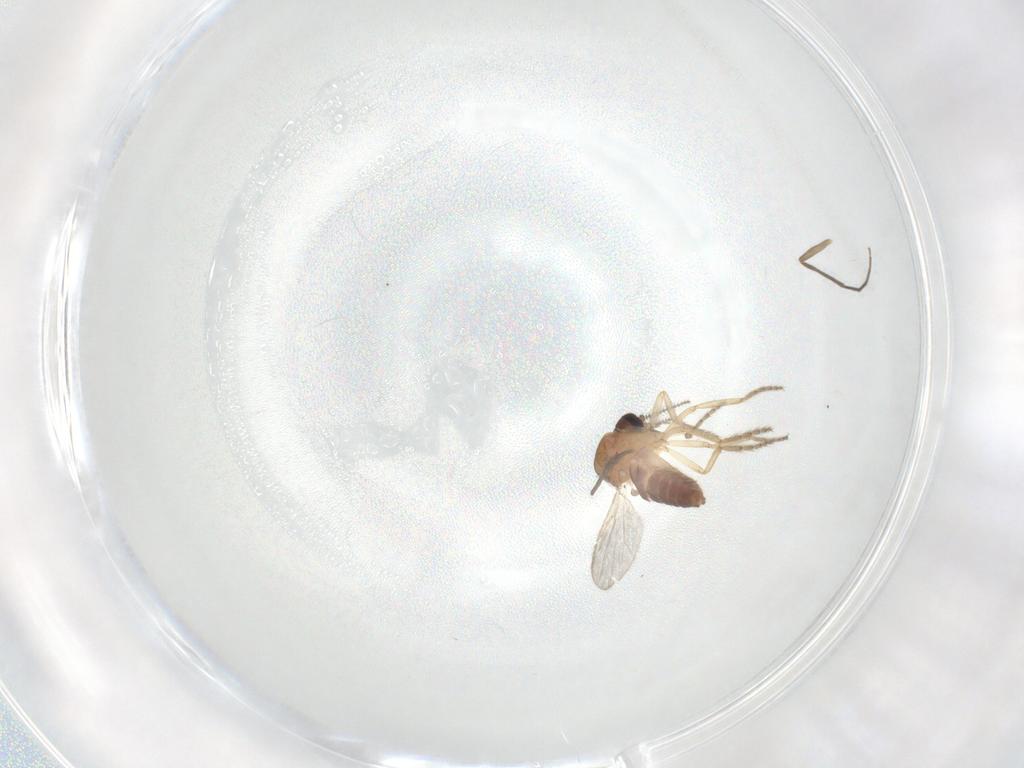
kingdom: Animalia
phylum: Arthropoda
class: Insecta
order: Diptera
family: Ceratopogonidae
